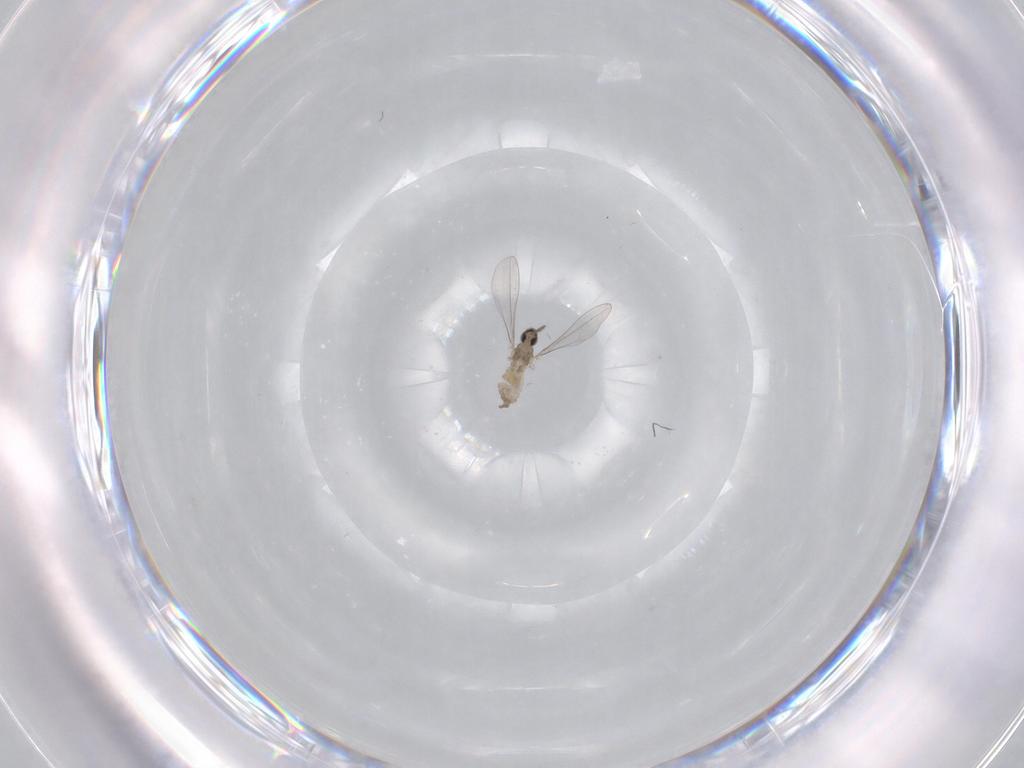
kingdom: Animalia
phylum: Arthropoda
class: Insecta
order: Diptera
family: Cecidomyiidae
